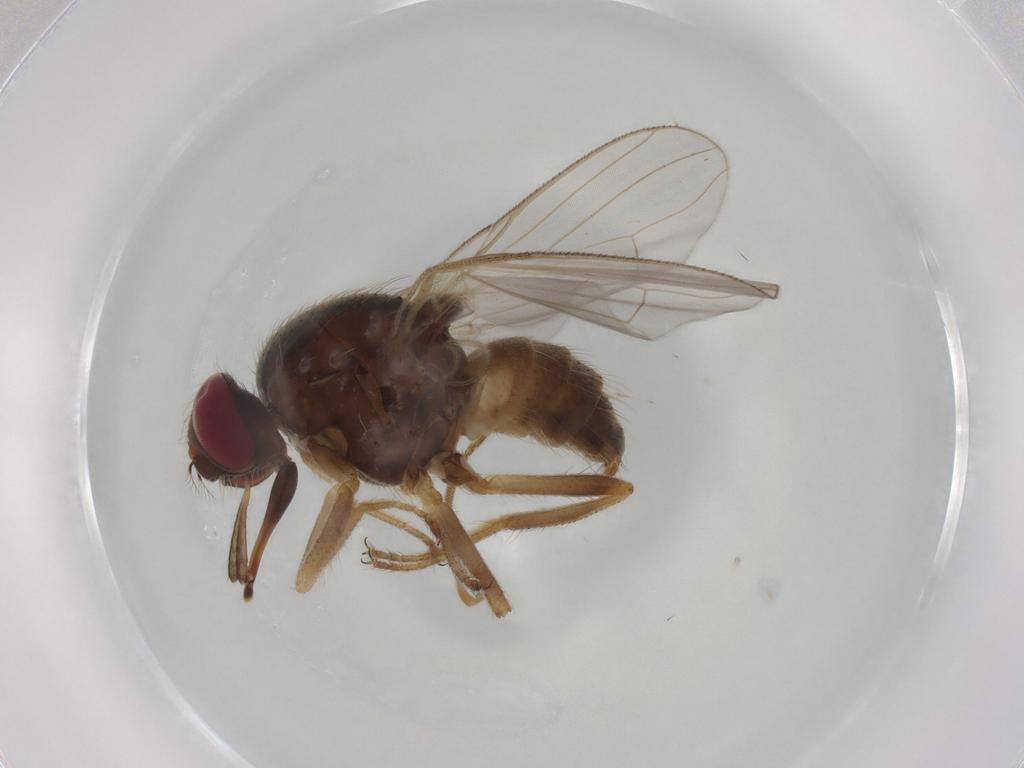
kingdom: Animalia
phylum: Arthropoda
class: Insecta
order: Diptera
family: Muscidae
